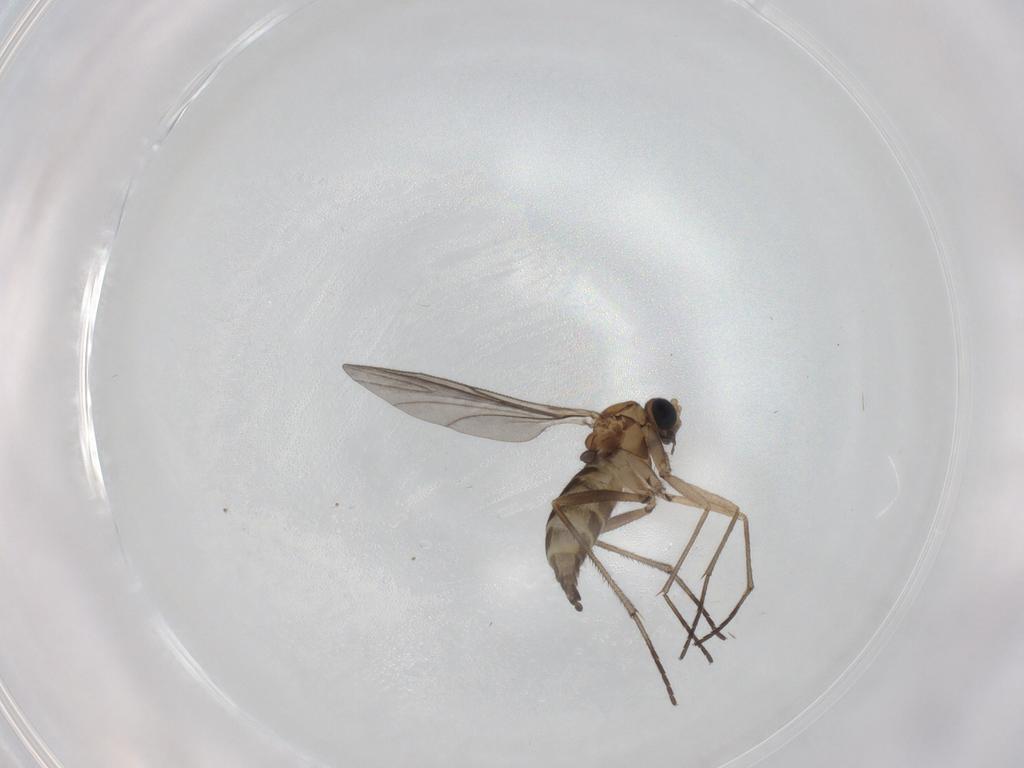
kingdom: Animalia
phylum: Arthropoda
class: Insecta
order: Diptera
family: Sciaridae
